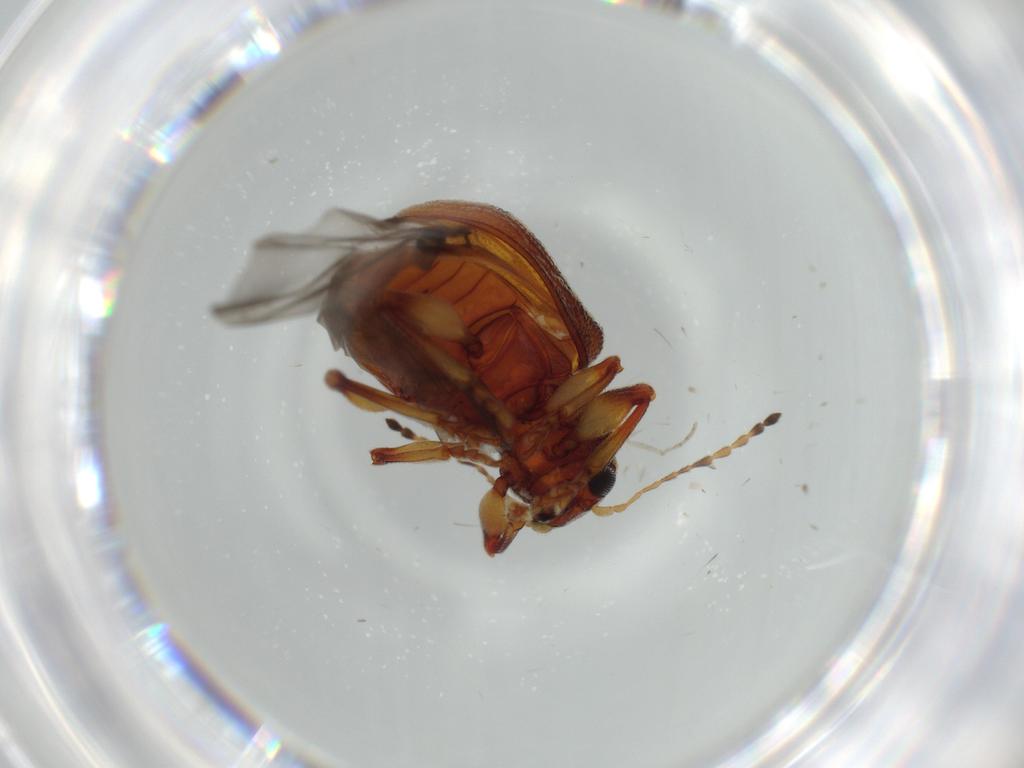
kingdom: Animalia
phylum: Arthropoda
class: Insecta
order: Coleoptera
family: Chrysomelidae
